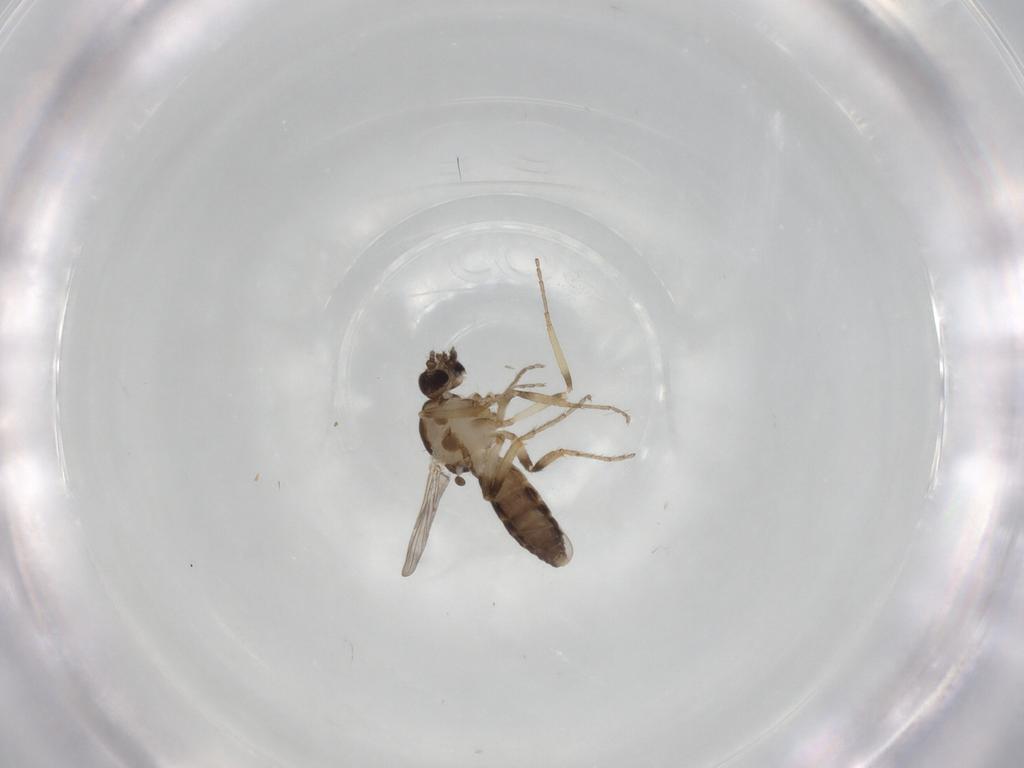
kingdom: Animalia
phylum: Arthropoda
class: Insecta
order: Diptera
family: Ceratopogonidae
